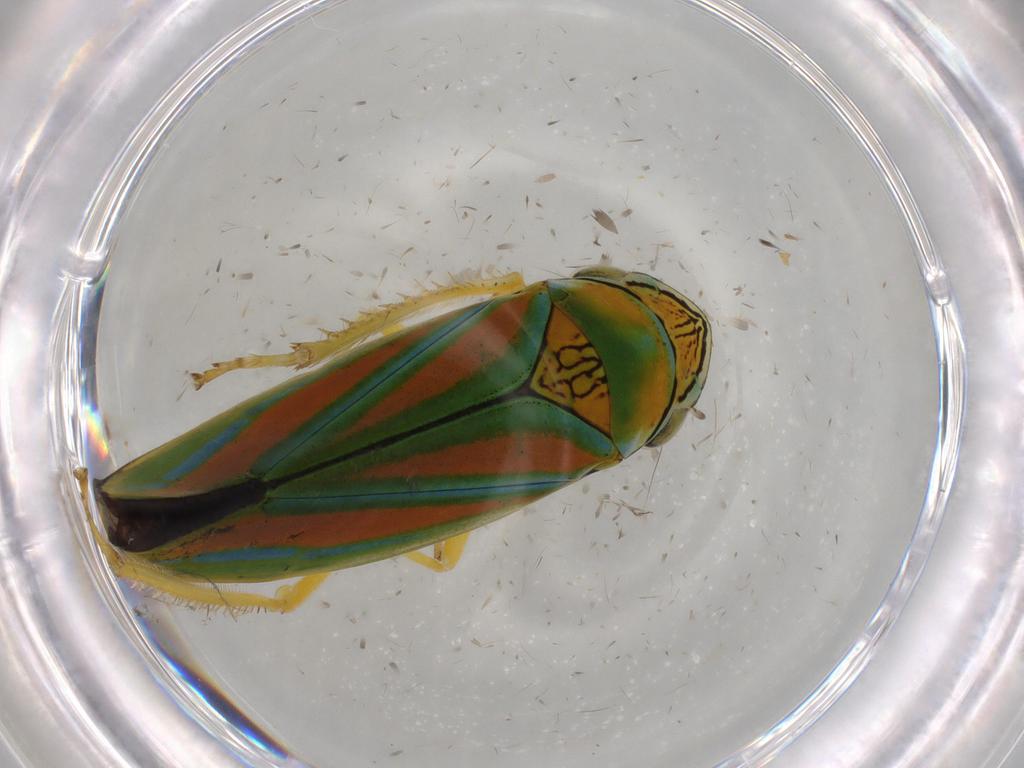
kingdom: Animalia
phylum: Arthropoda
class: Insecta
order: Hemiptera
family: Cicadellidae
